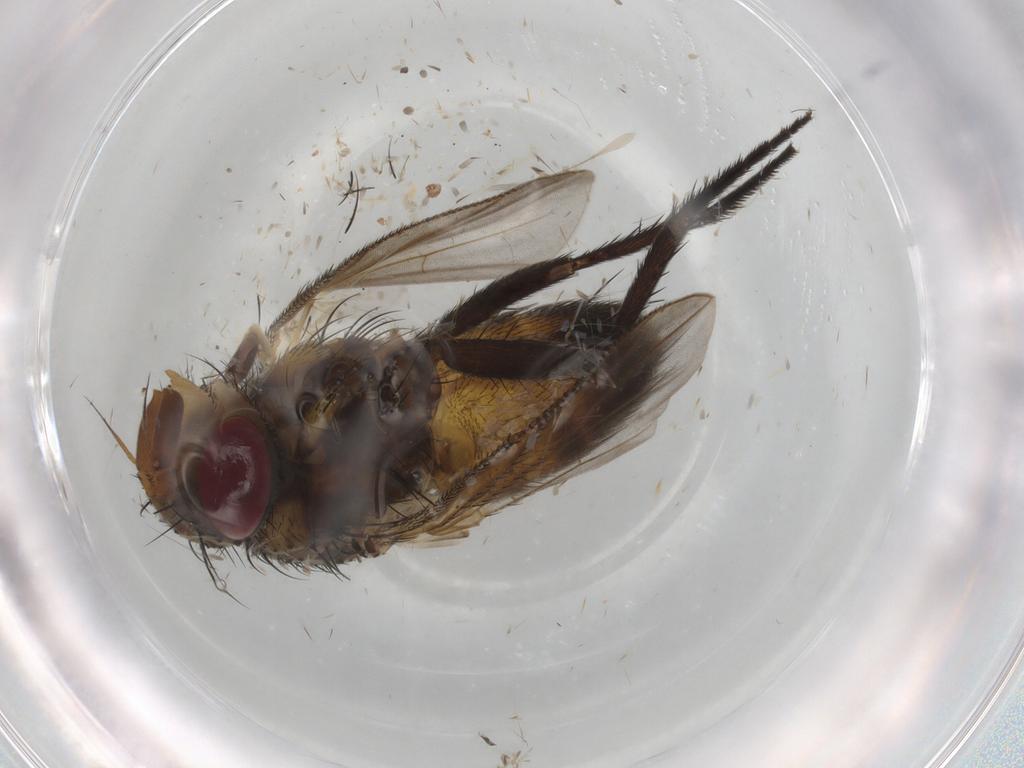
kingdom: Animalia
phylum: Arthropoda
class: Insecta
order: Diptera
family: Tachinidae
